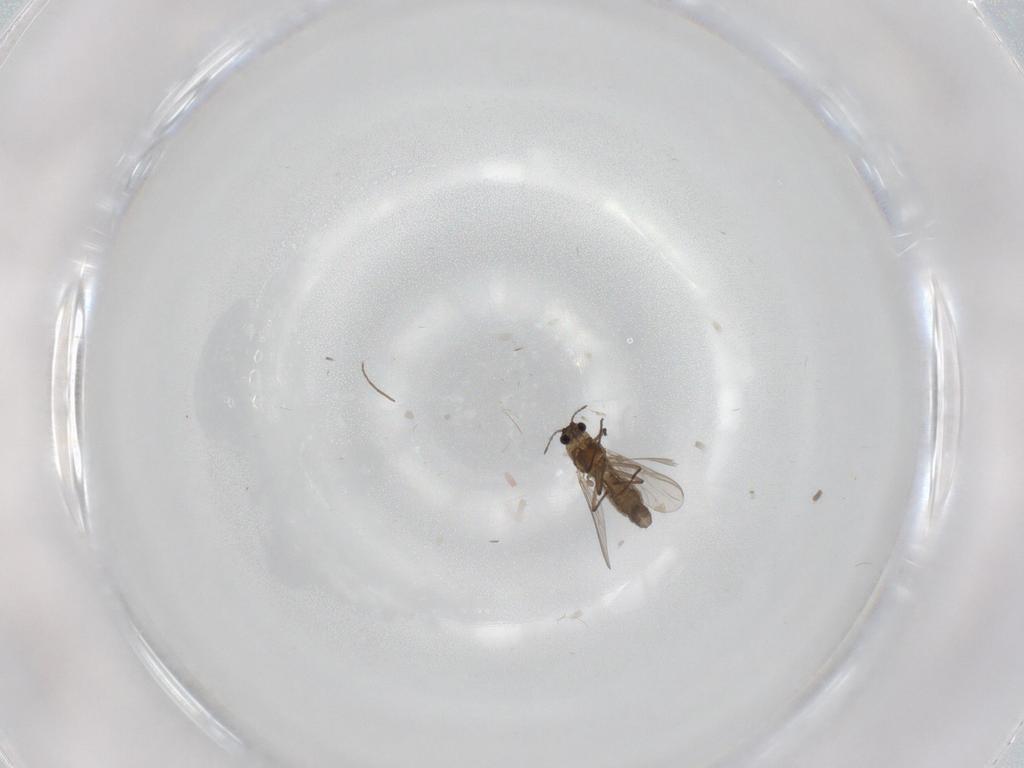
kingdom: Animalia
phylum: Arthropoda
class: Insecta
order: Diptera
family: Chironomidae
